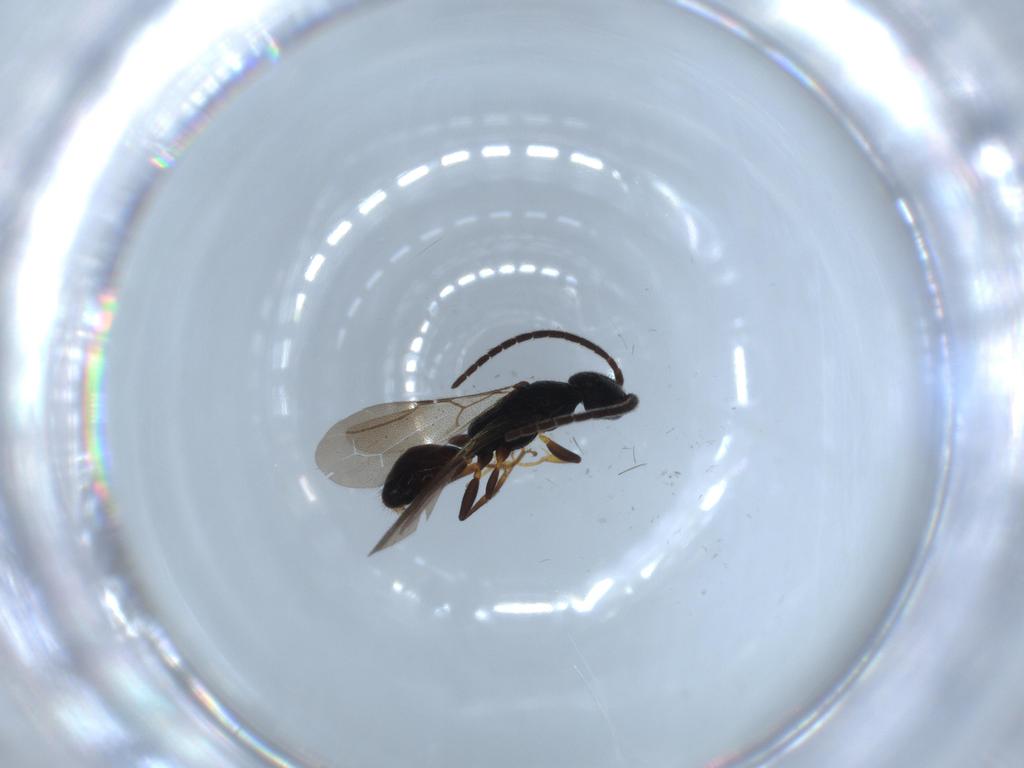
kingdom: Animalia
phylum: Arthropoda
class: Insecta
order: Hymenoptera
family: Bethylidae
